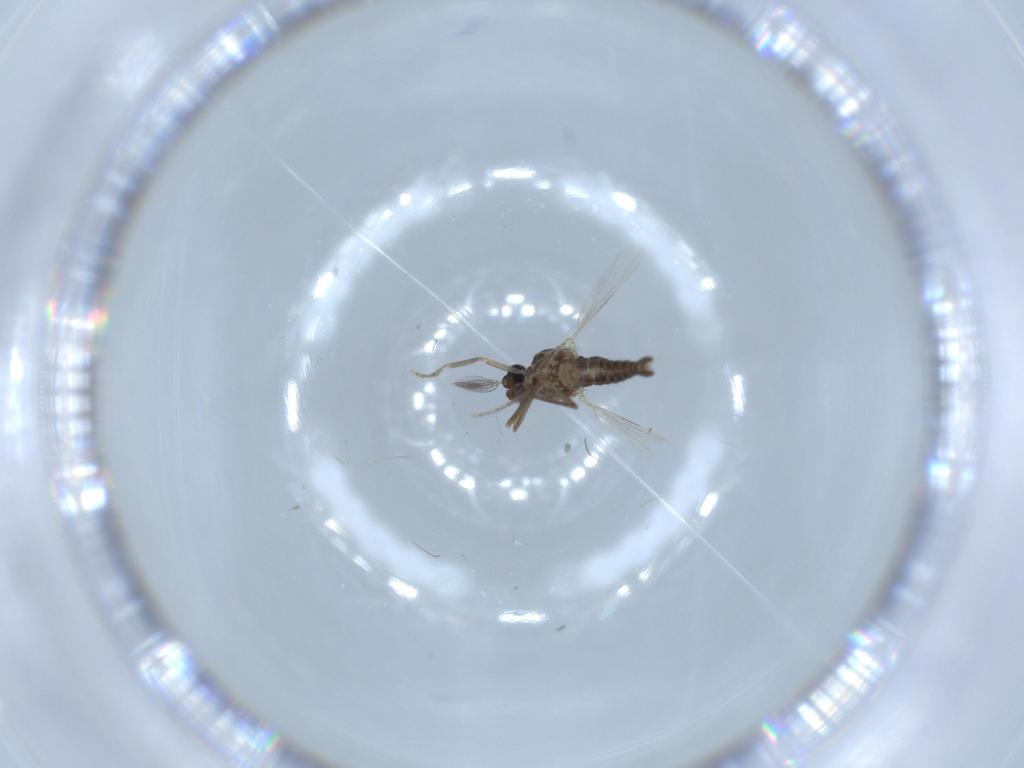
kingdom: Animalia
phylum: Arthropoda
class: Insecta
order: Diptera
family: Ceratopogonidae
